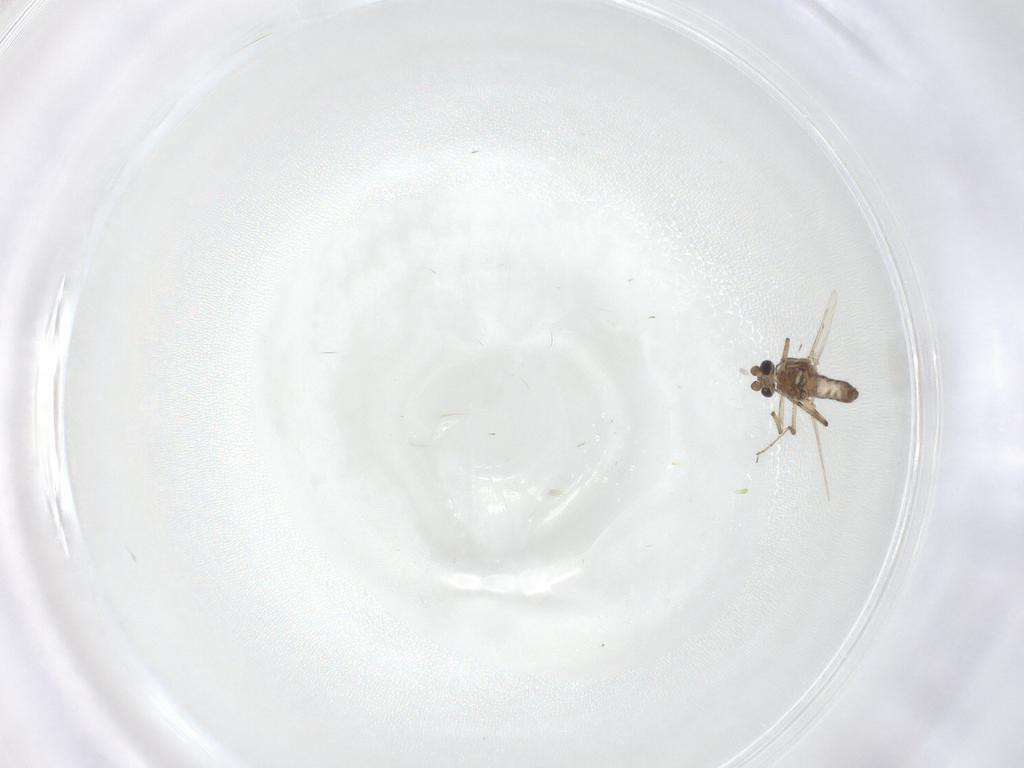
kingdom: Animalia
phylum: Arthropoda
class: Insecta
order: Diptera
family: Ceratopogonidae
